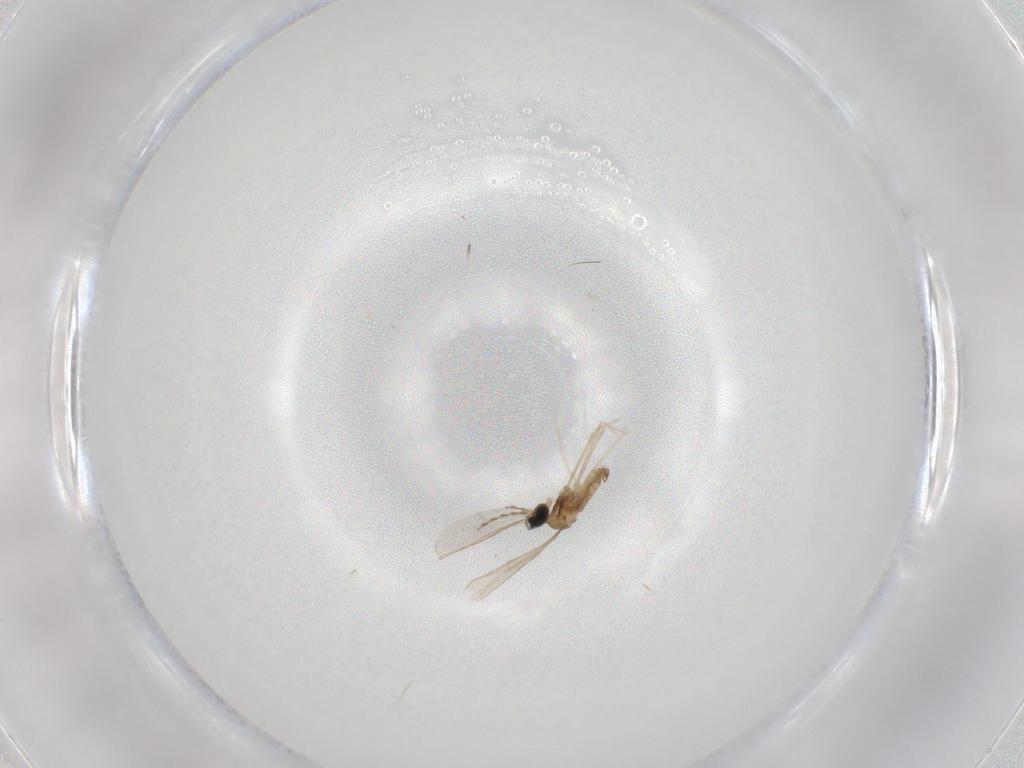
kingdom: Animalia
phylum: Arthropoda
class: Insecta
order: Diptera
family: Cecidomyiidae
